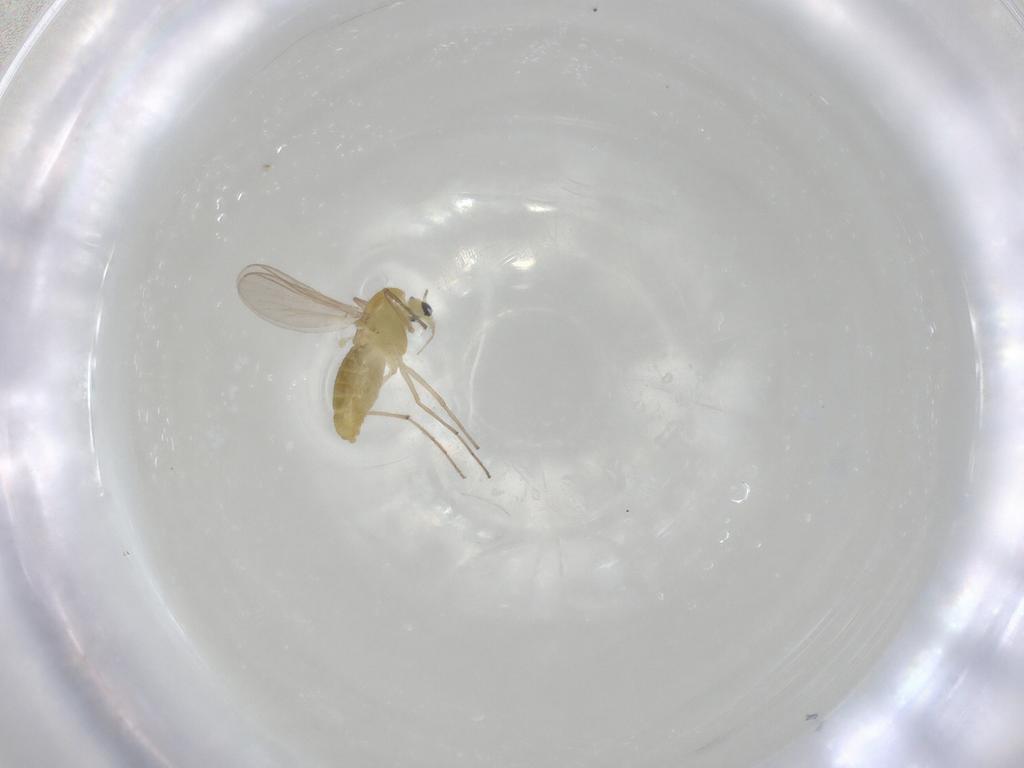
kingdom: Animalia
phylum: Arthropoda
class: Insecta
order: Diptera
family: Chironomidae
